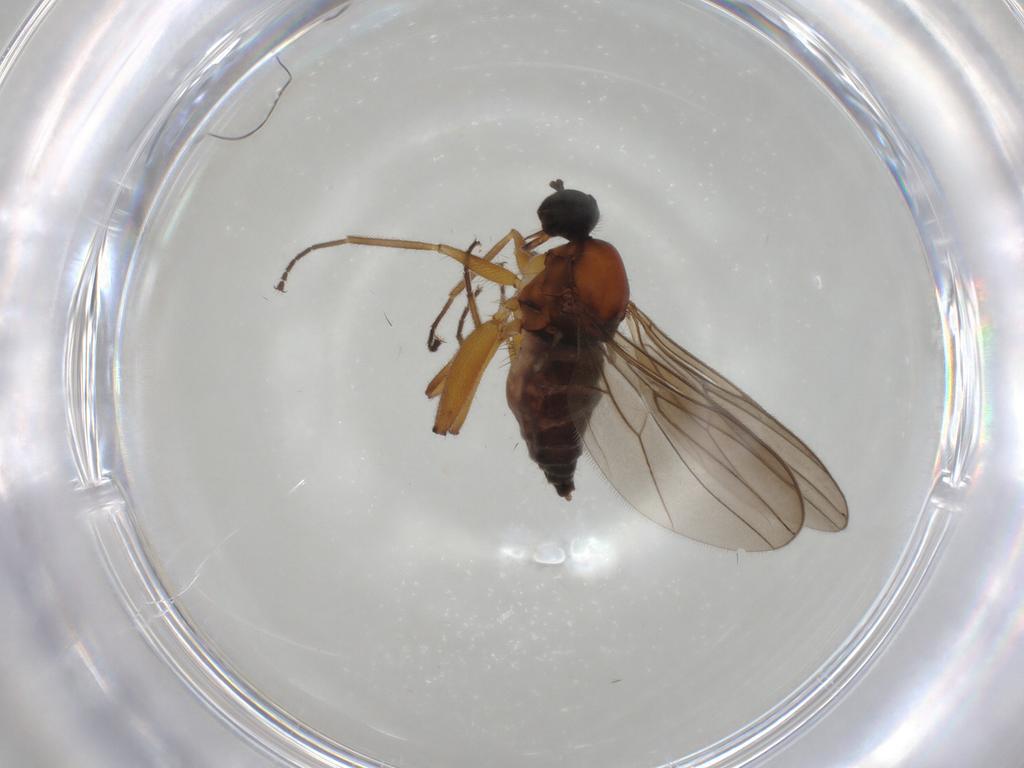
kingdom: Animalia
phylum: Arthropoda
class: Insecta
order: Diptera
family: Hybotidae
